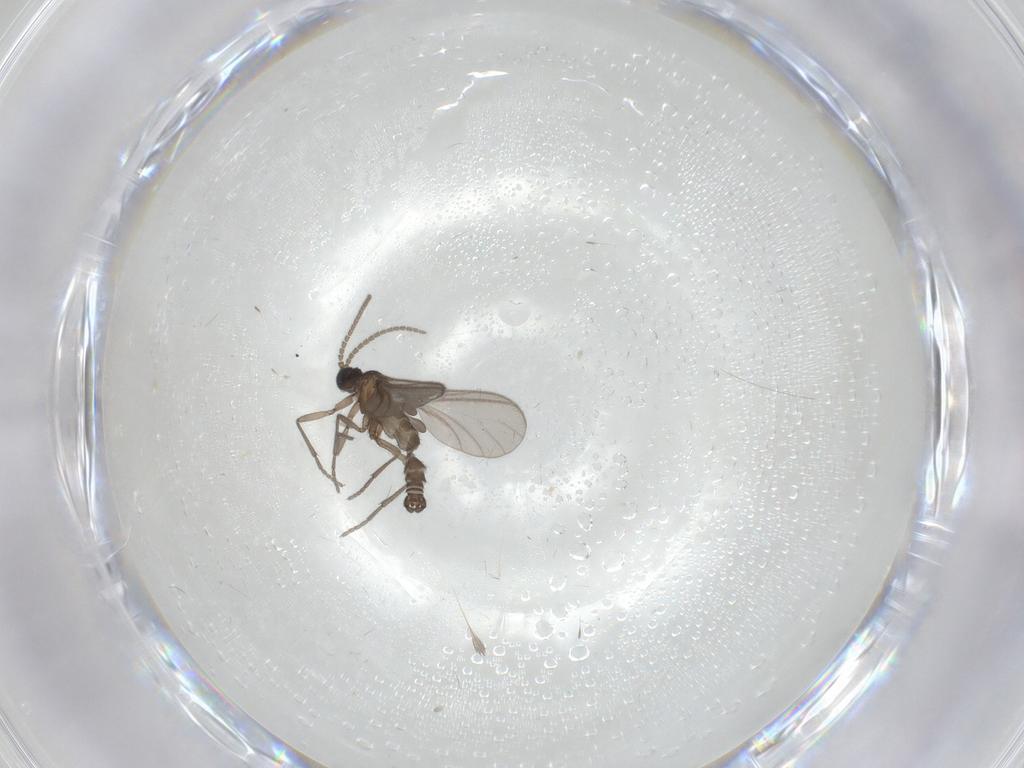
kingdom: Animalia
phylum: Arthropoda
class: Insecta
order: Diptera
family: Sciaridae
